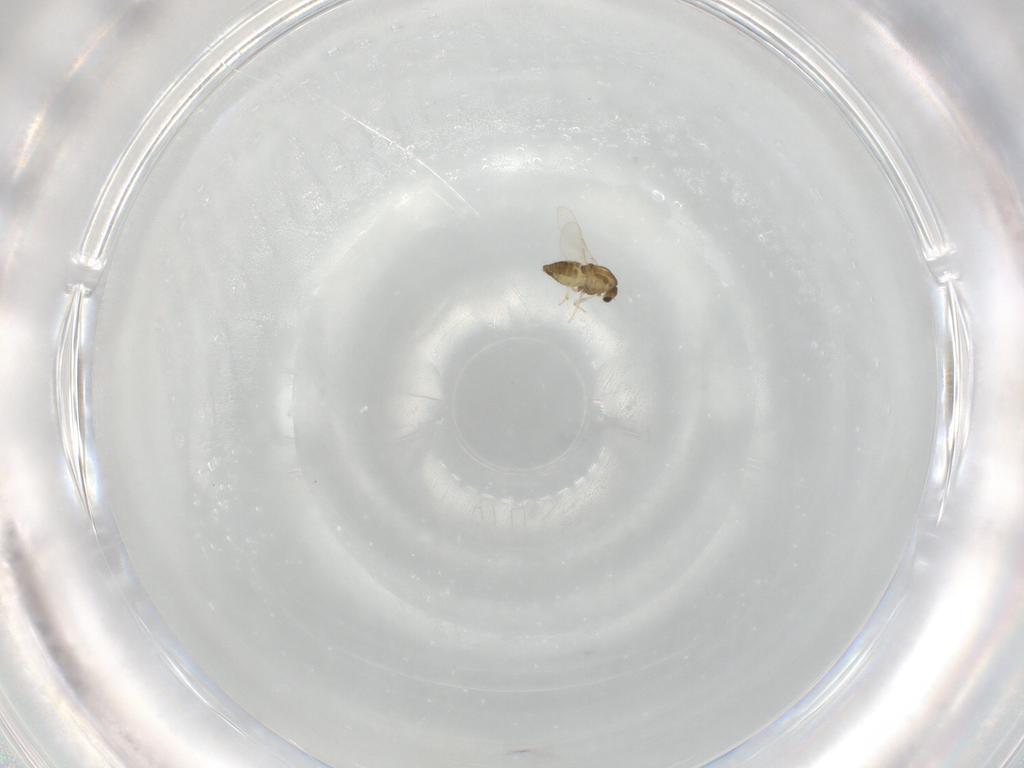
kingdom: Animalia
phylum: Arthropoda
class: Insecta
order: Diptera
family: Chironomidae
